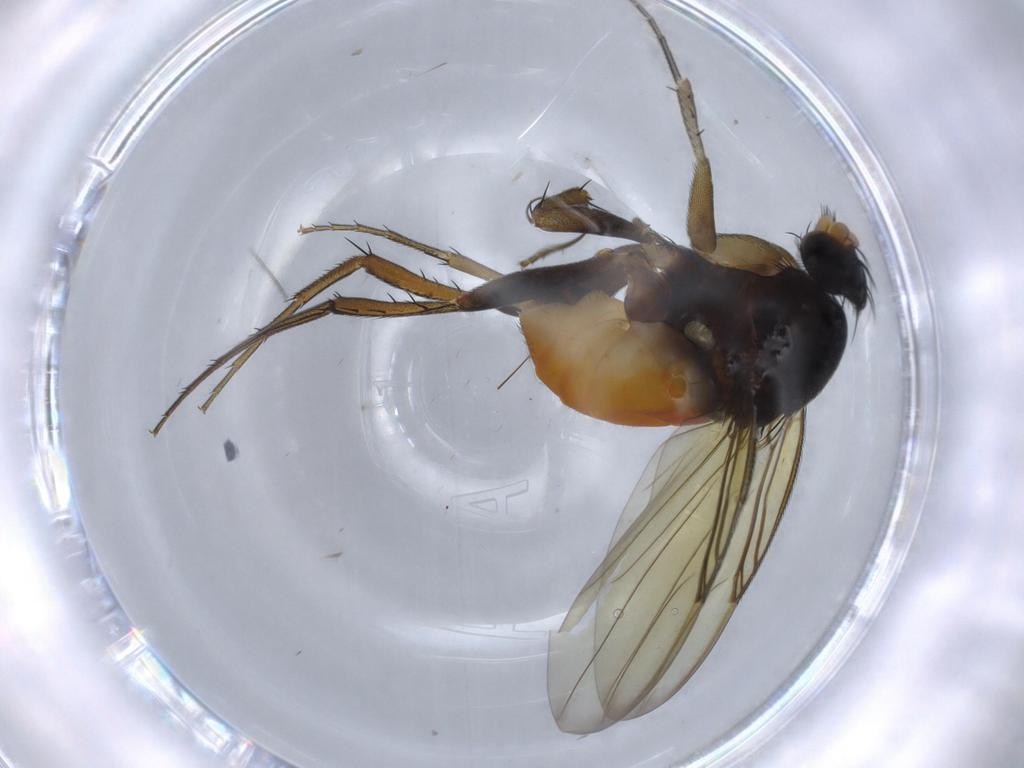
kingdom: Animalia
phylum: Arthropoda
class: Insecta
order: Diptera
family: Phoridae
